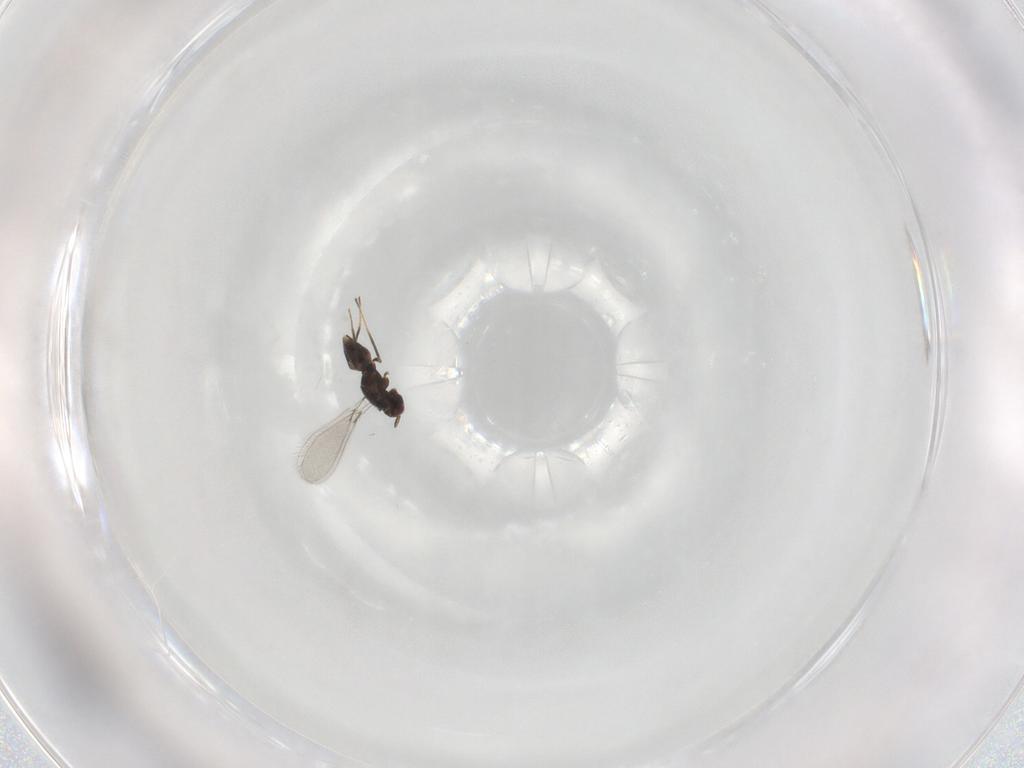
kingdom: Animalia
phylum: Arthropoda
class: Insecta
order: Hymenoptera
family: Mymaridae
